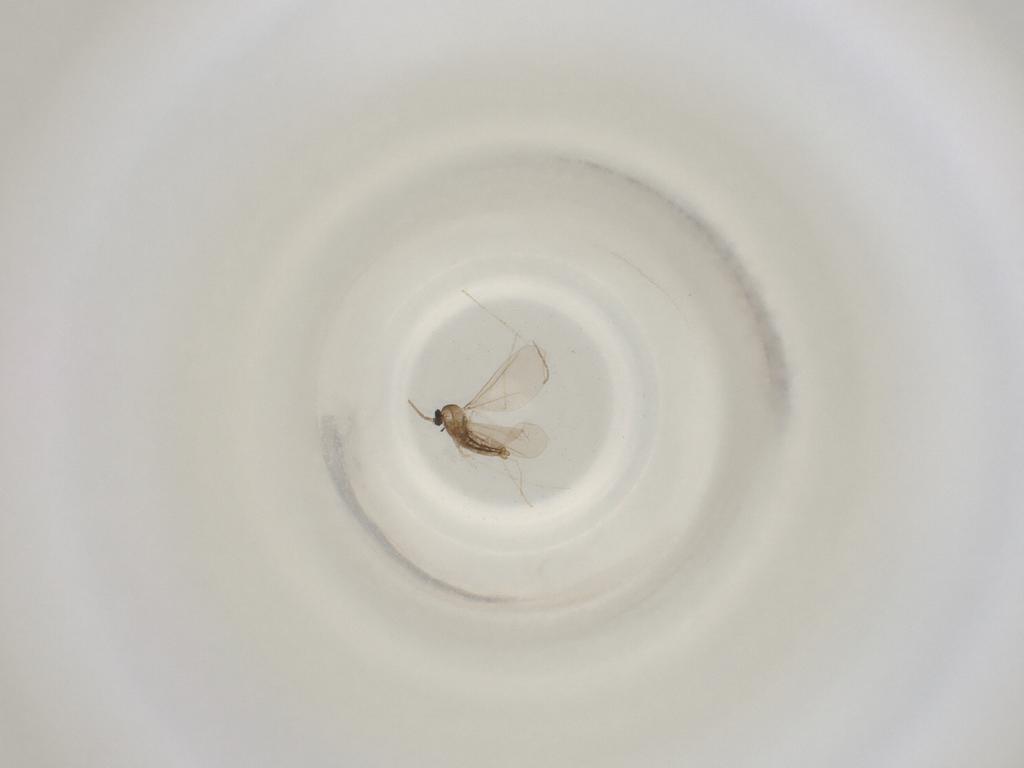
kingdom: Animalia
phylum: Arthropoda
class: Insecta
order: Diptera
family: Cecidomyiidae
